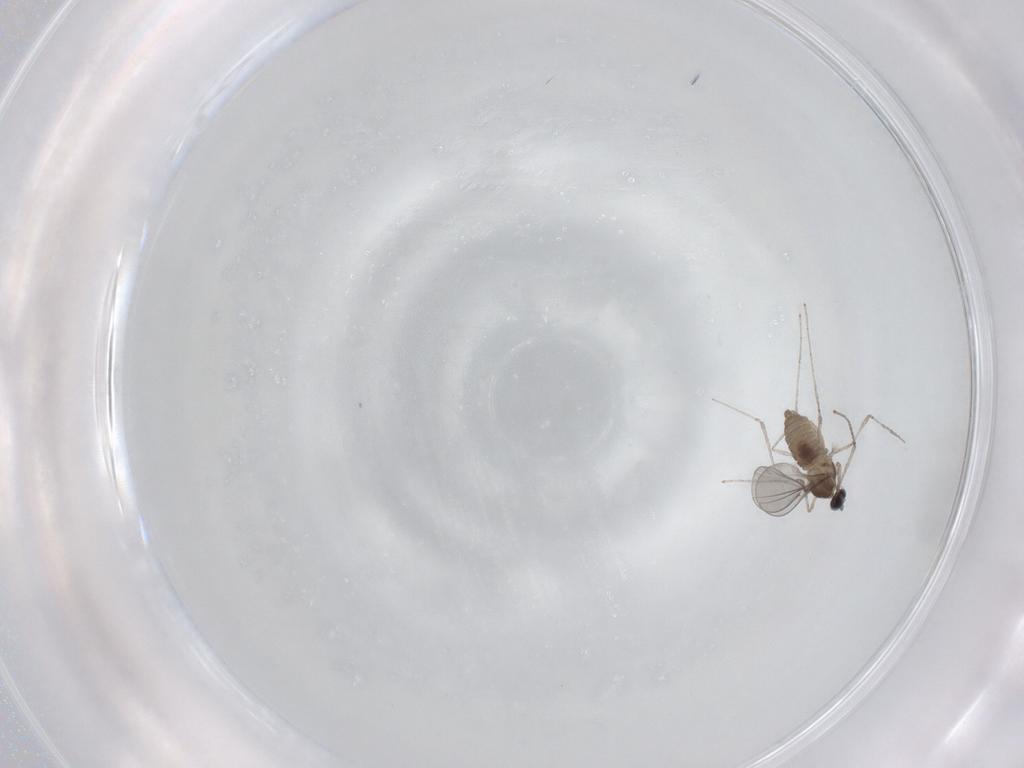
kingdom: Animalia
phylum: Arthropoda
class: Insecta
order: Diptera
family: Cecidomyiidae
